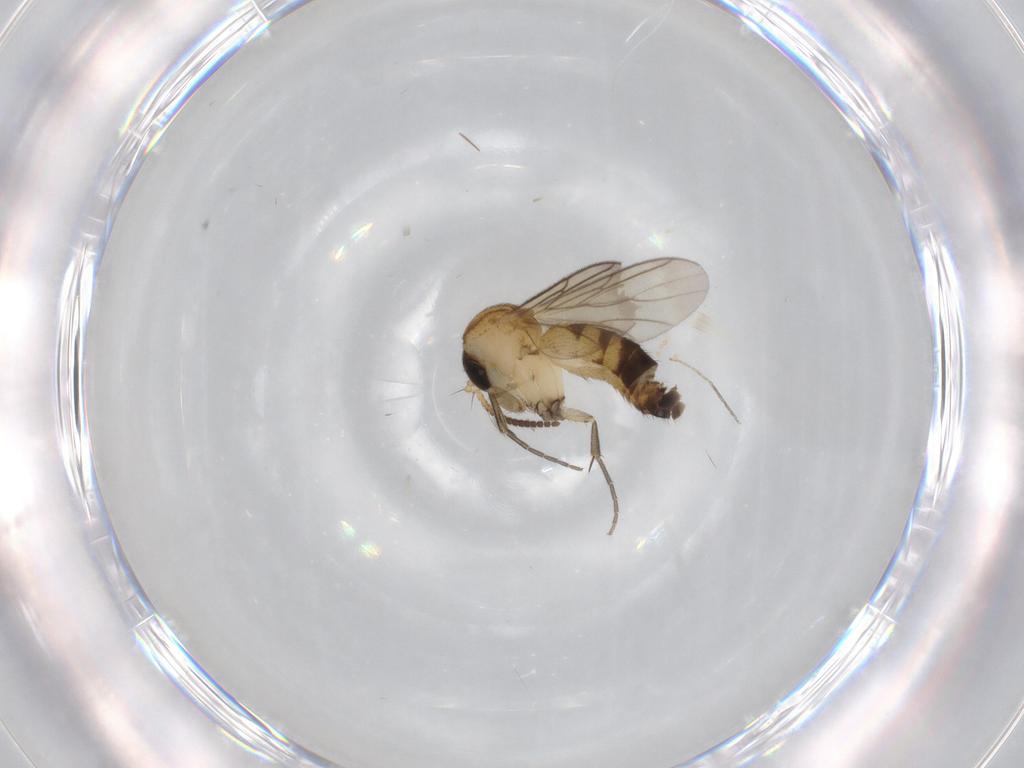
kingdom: Animalia
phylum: Arthropoda
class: Insecta
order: Diptera
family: Mycetophilidae
